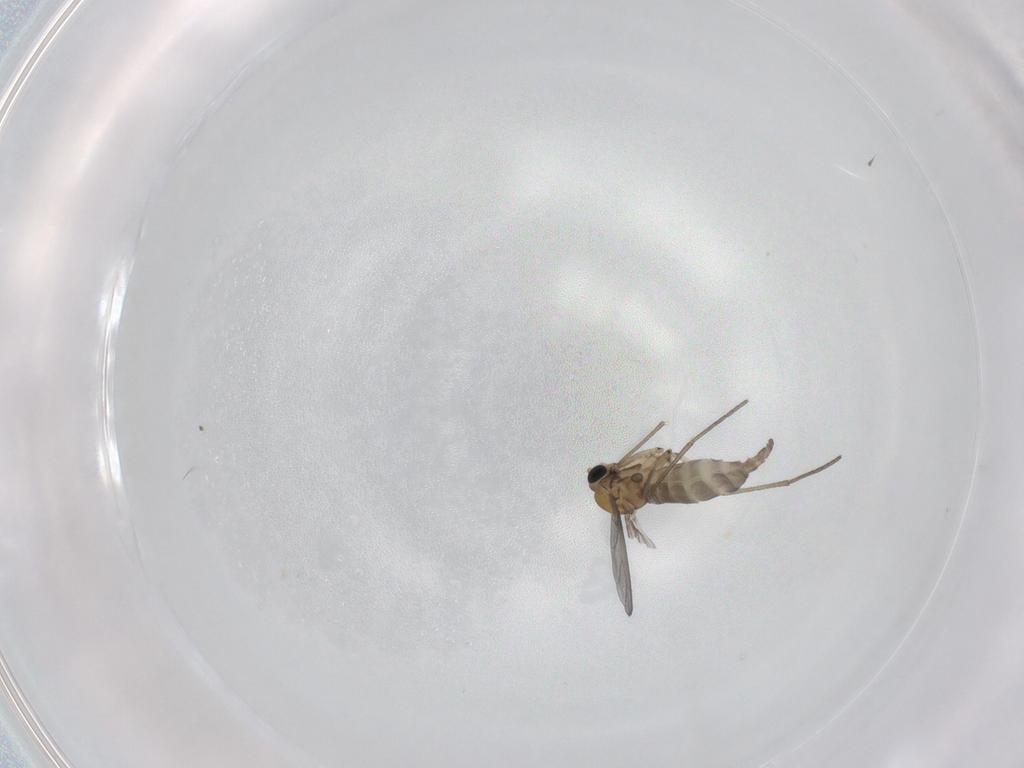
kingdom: Animalia
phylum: Arthropoda
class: Insecta
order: Diptera
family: Sciaridae
